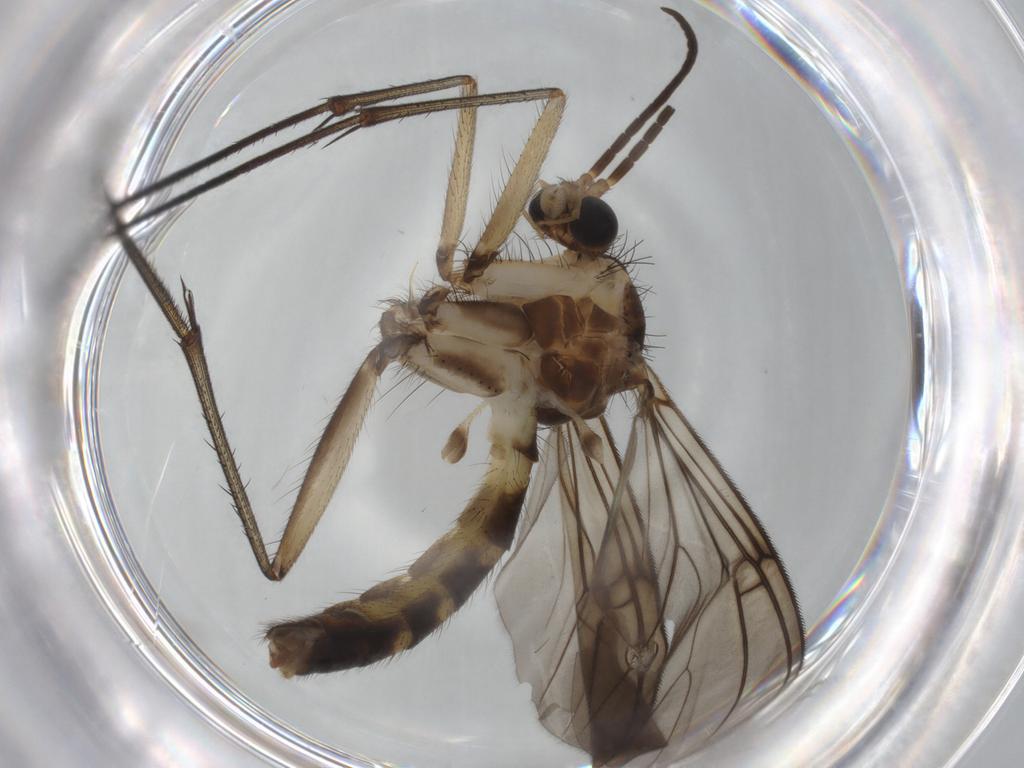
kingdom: Animalia
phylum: Arthropoda
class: Insecta
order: Diptera
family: Mycetophilidae
